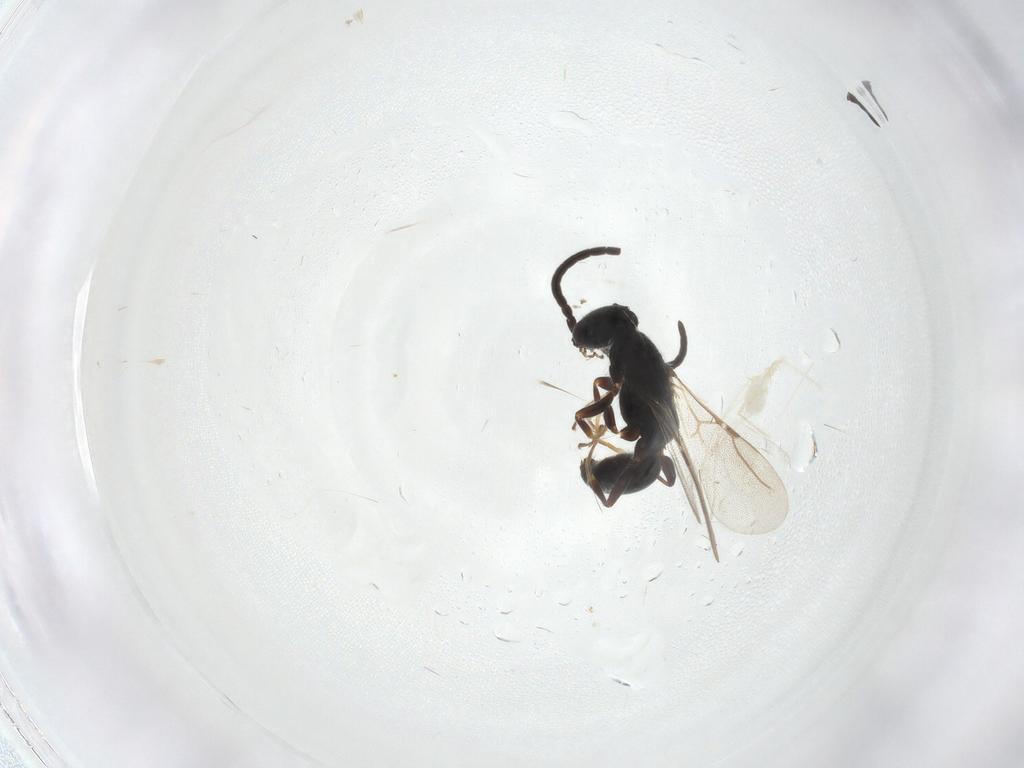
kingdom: Animalia
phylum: Arthropoda
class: Insecta
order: Hymenoptera
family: Bethylidae
